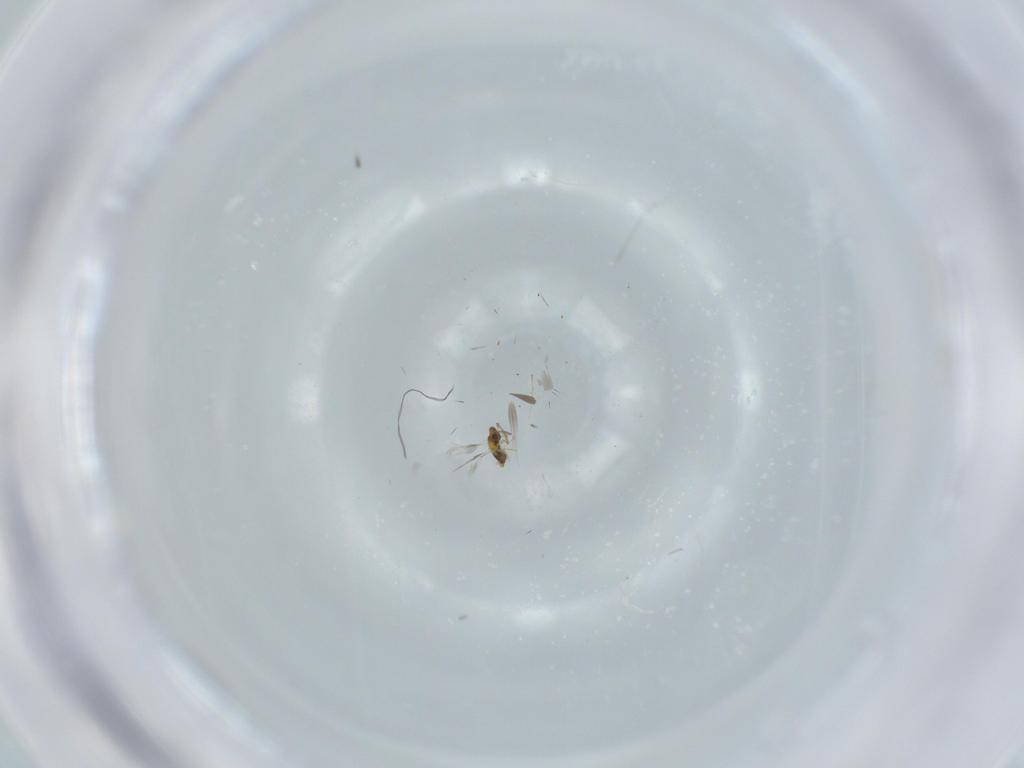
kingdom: Animalia
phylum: Arthropoda
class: Insecta
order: Hymenoptera
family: Aphelinidae
